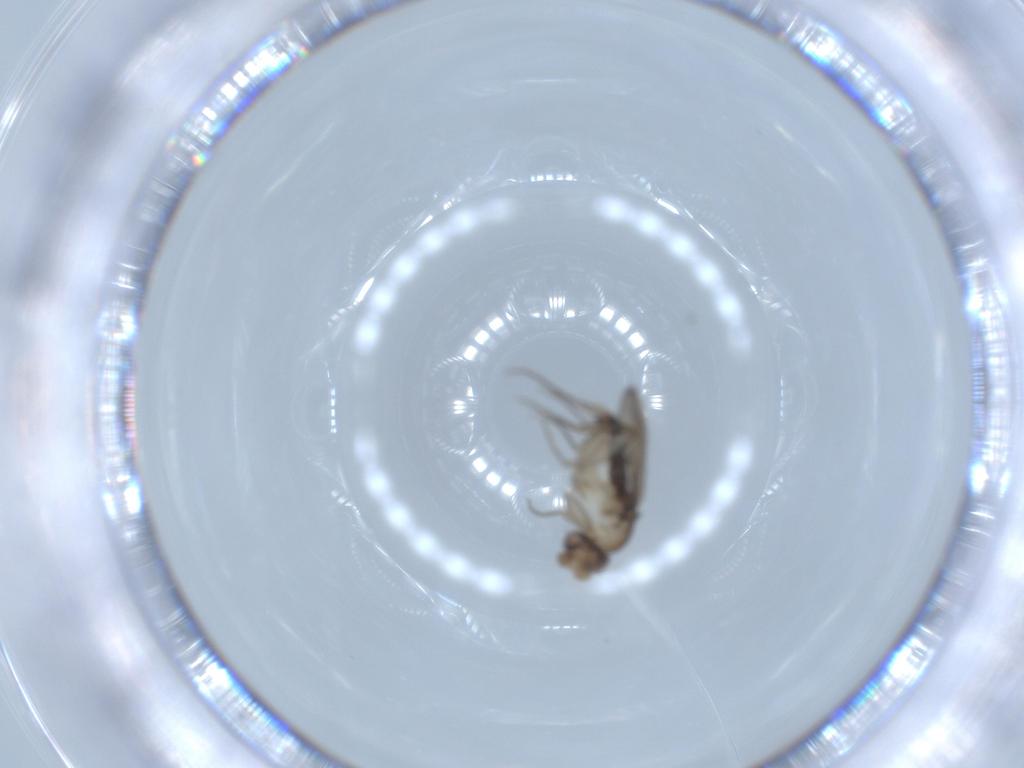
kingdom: Animalia
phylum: Arthropoda
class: Insecta
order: Diptera
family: Phoridae
